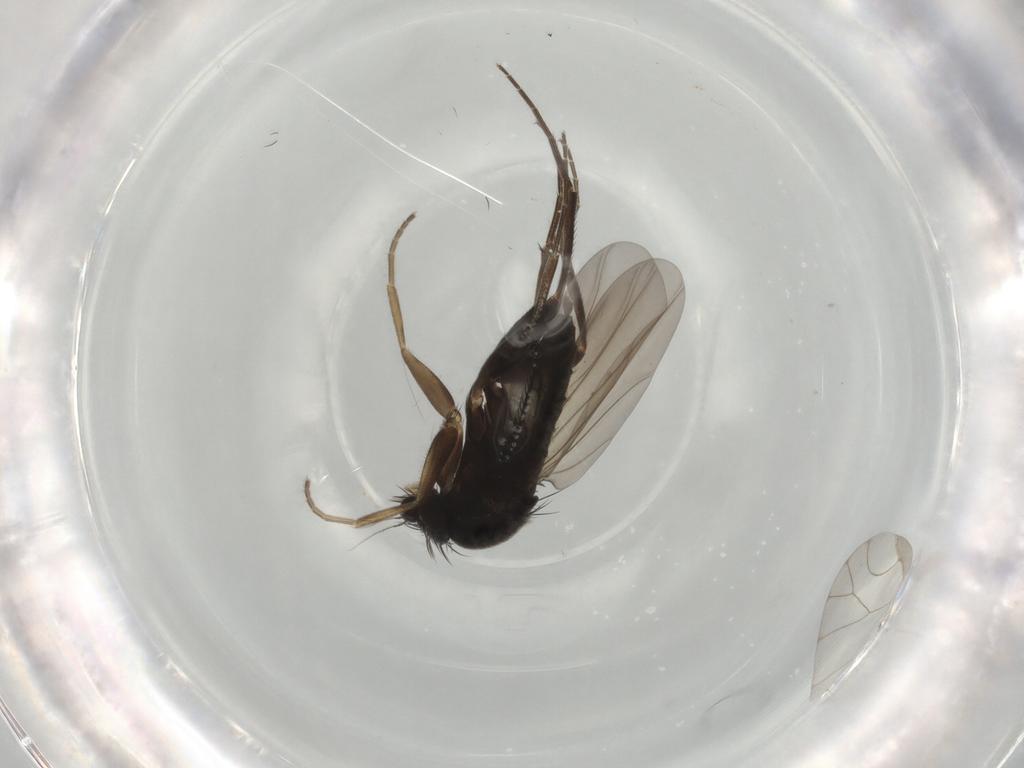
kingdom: Animalia
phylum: Arthropoda
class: Insecta
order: Diptera
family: Phoridae
